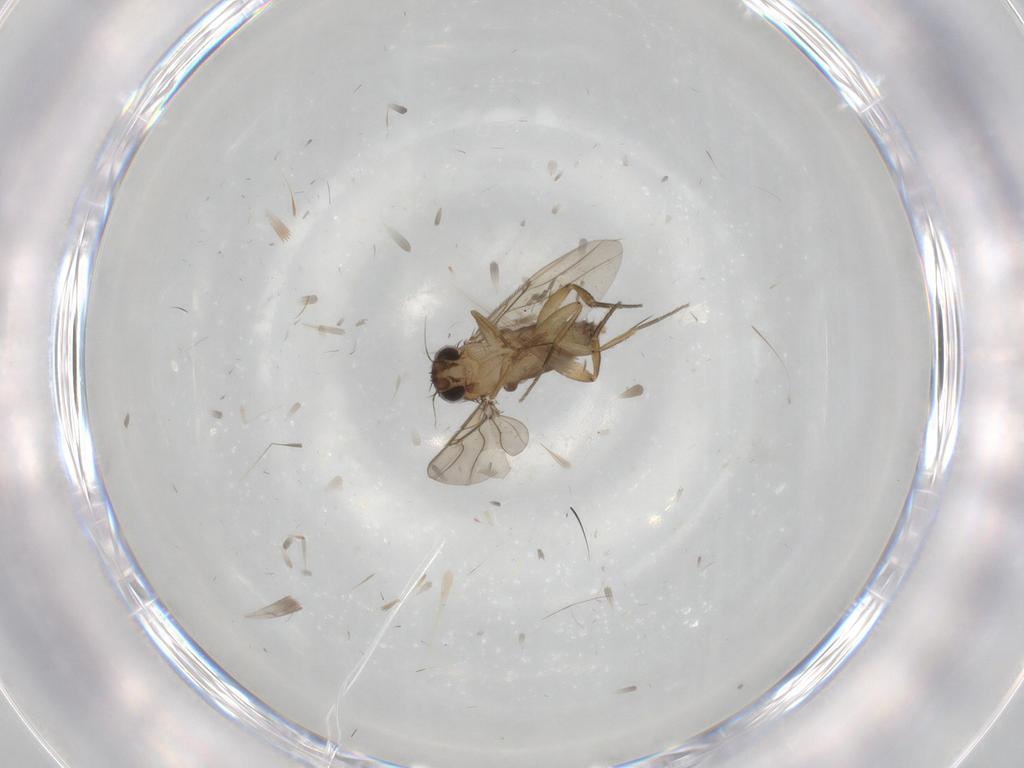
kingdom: Animalia
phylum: Arthropoda
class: Insecta
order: Diptera
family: Phoridae
